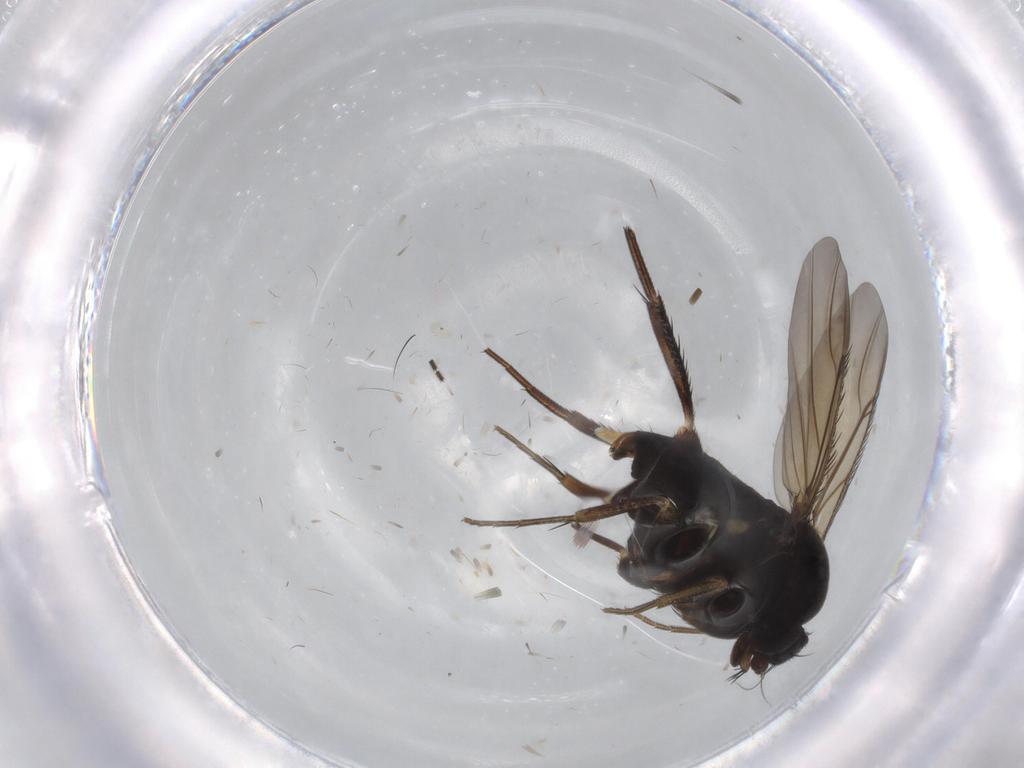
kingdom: Animalia
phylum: Arthropoda
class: Insecta
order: Diptera
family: Phoridae
